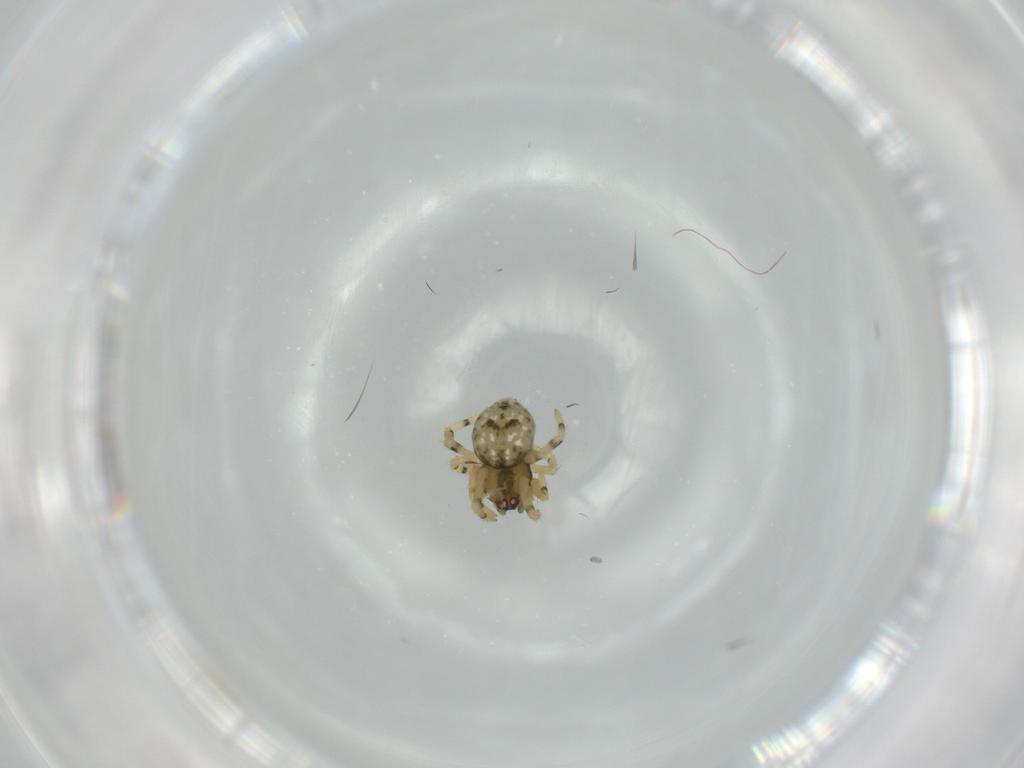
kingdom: Animalia
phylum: Arthropoda
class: Arachnida
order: Araneae
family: Theridiidae
